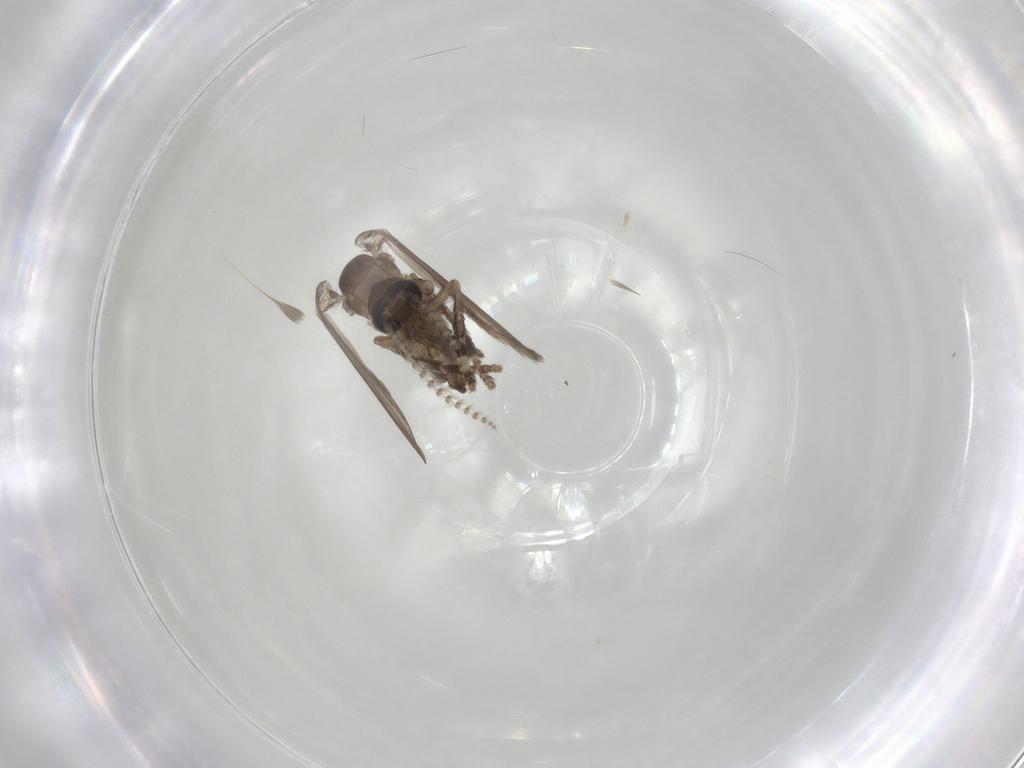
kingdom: Animalia
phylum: Arthropoda
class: Insecta
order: Diptera
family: Psychodidae
